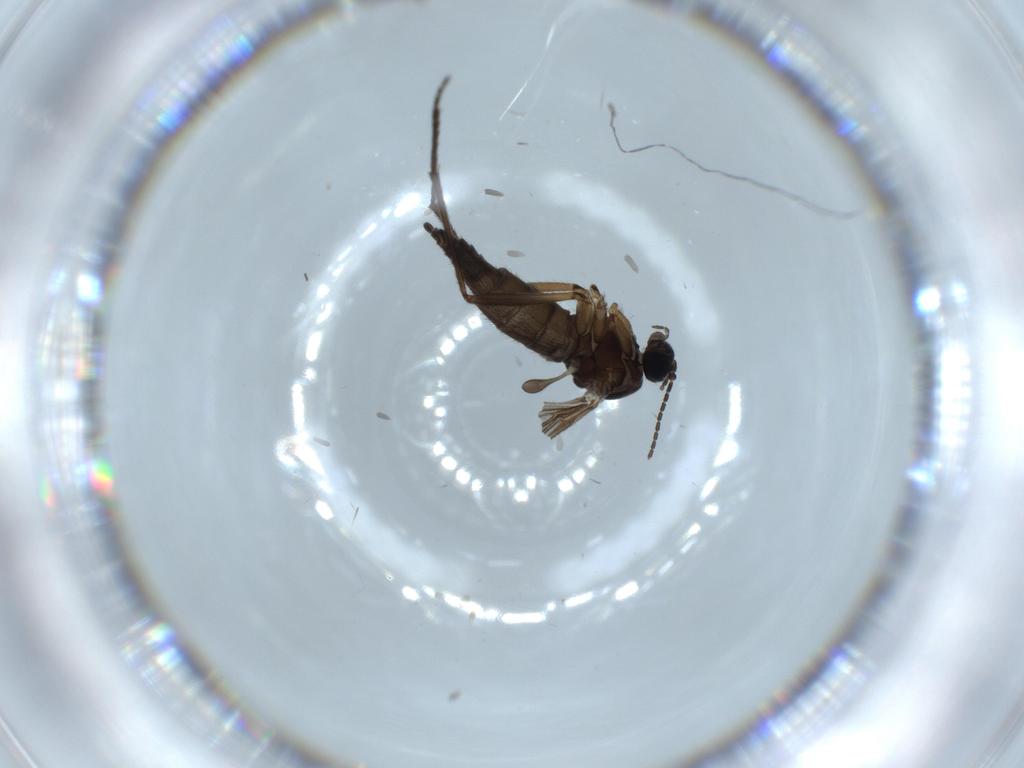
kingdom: Animalia
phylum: Arthropoda
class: Insecta
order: Diptera
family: Sciaridae
